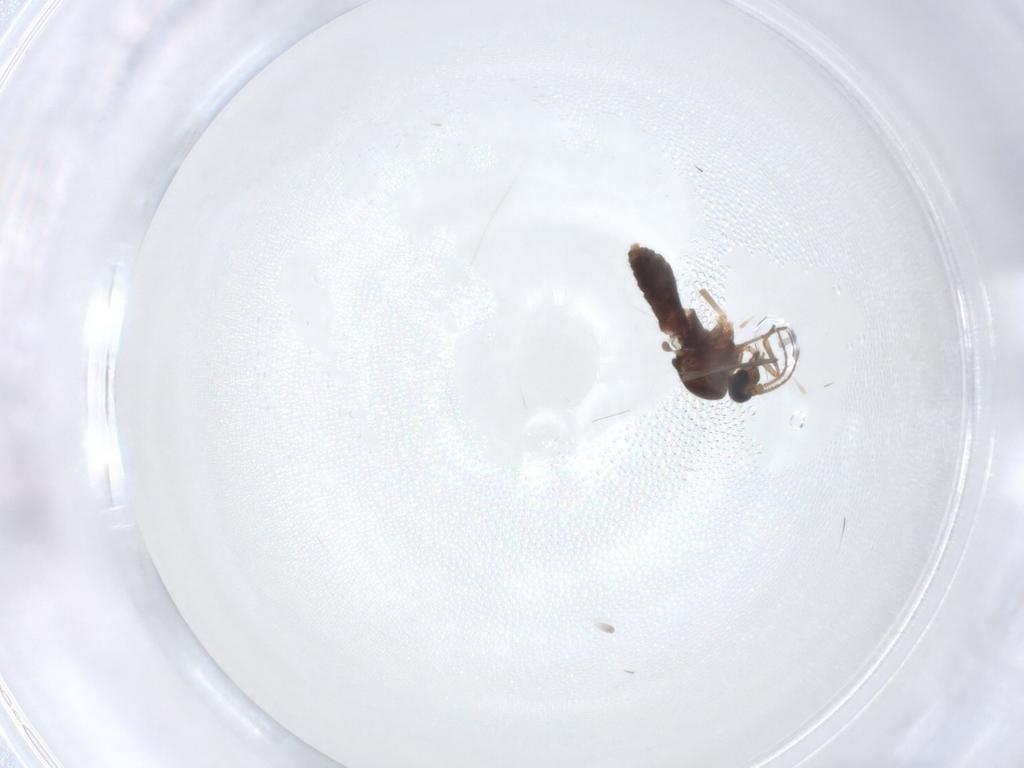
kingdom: Animalia
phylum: Arthropoda
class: Insecta
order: Diptera
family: Ceratopogonidae
